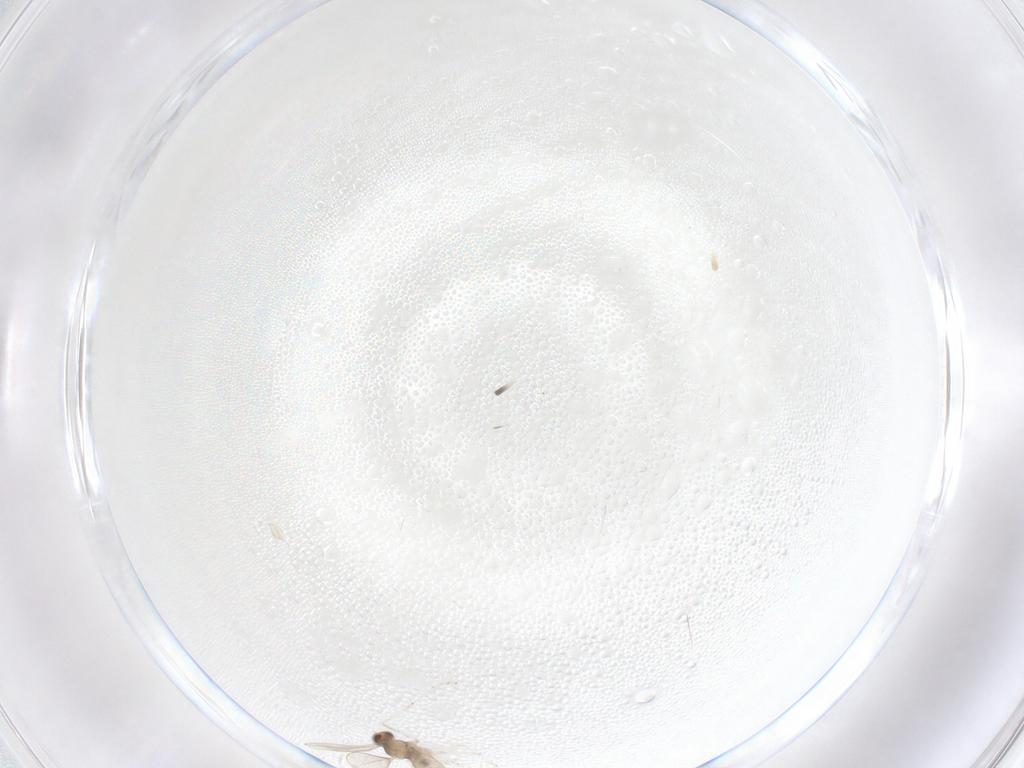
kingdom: Animalia
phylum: Arthropoda
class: Insecta
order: Diptera
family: Cecidomyiidae
